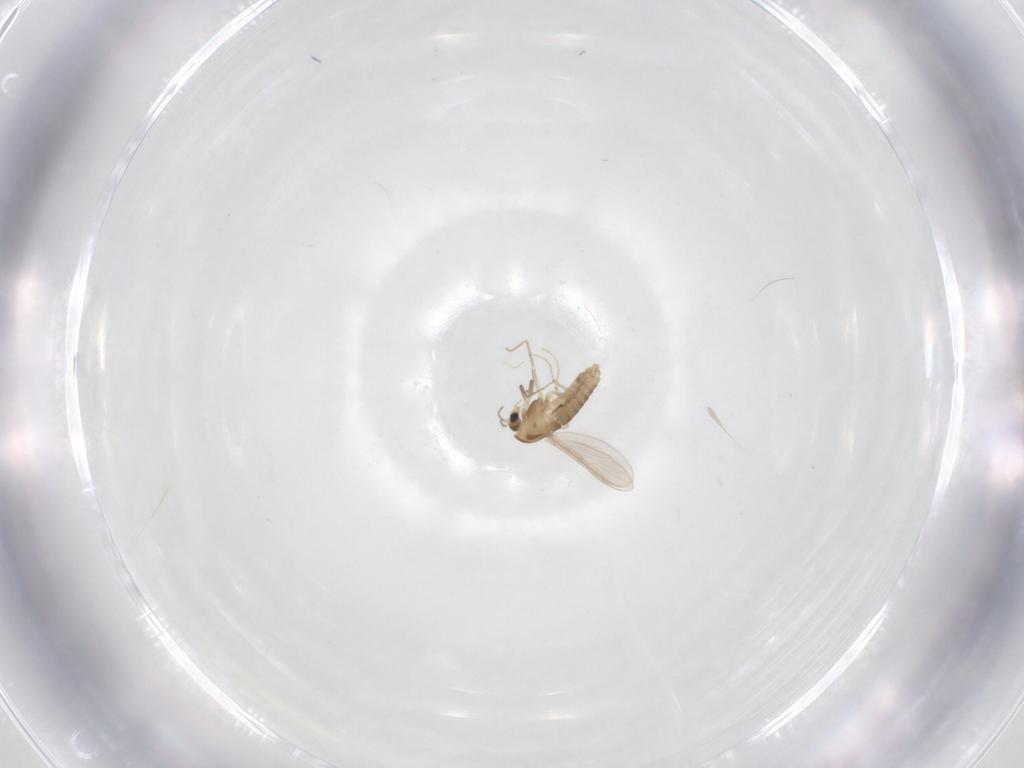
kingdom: Animalia
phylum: Arthropoda
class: Insecta
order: Diptera
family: Chironomidae
